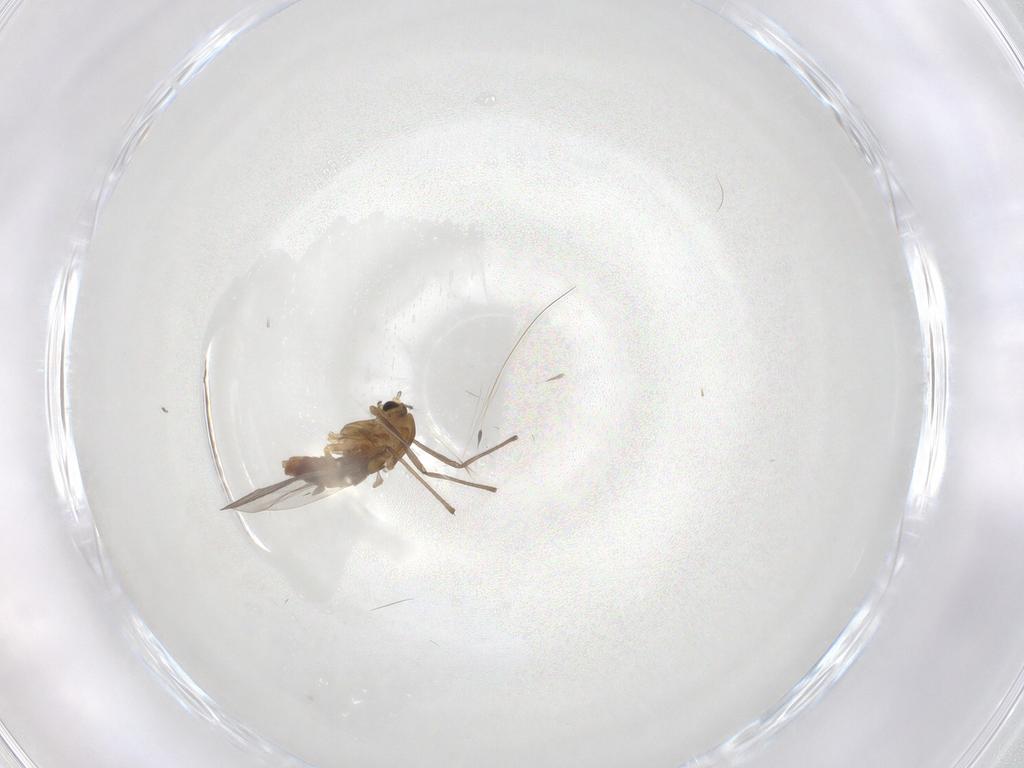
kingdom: Animalia
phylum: Arthropoda
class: Insecta
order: Diptera
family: Chironomidae
